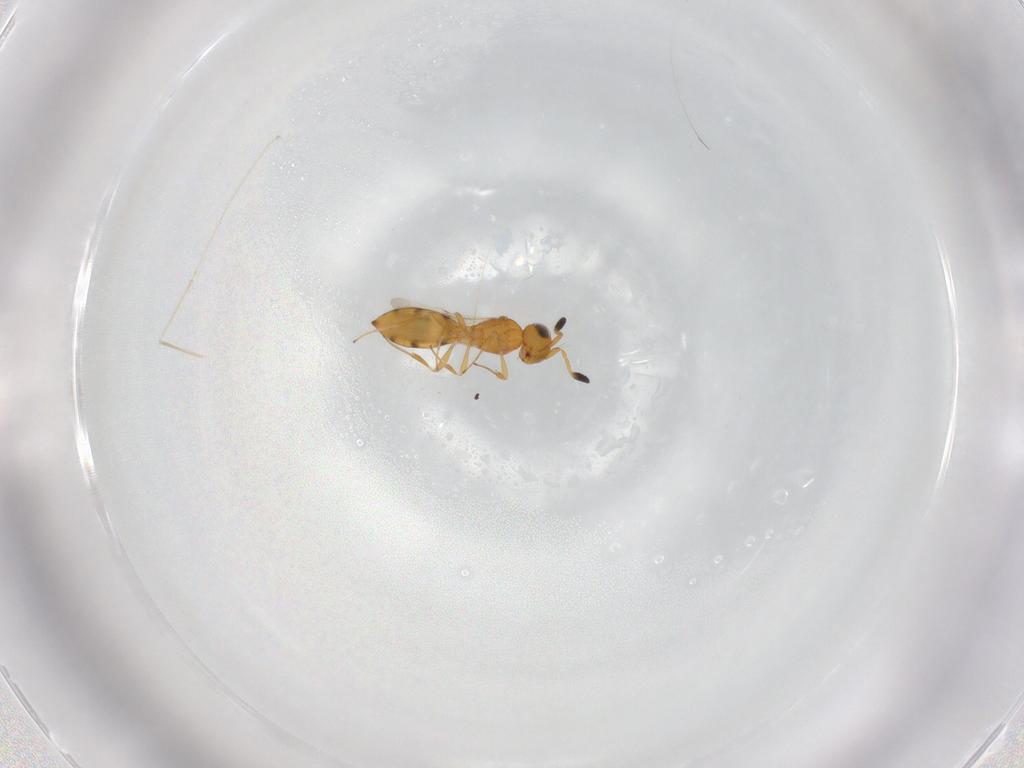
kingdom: Animalia
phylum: Arthropoda
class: Insecta
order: Hymenoptera
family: Scelionidae
